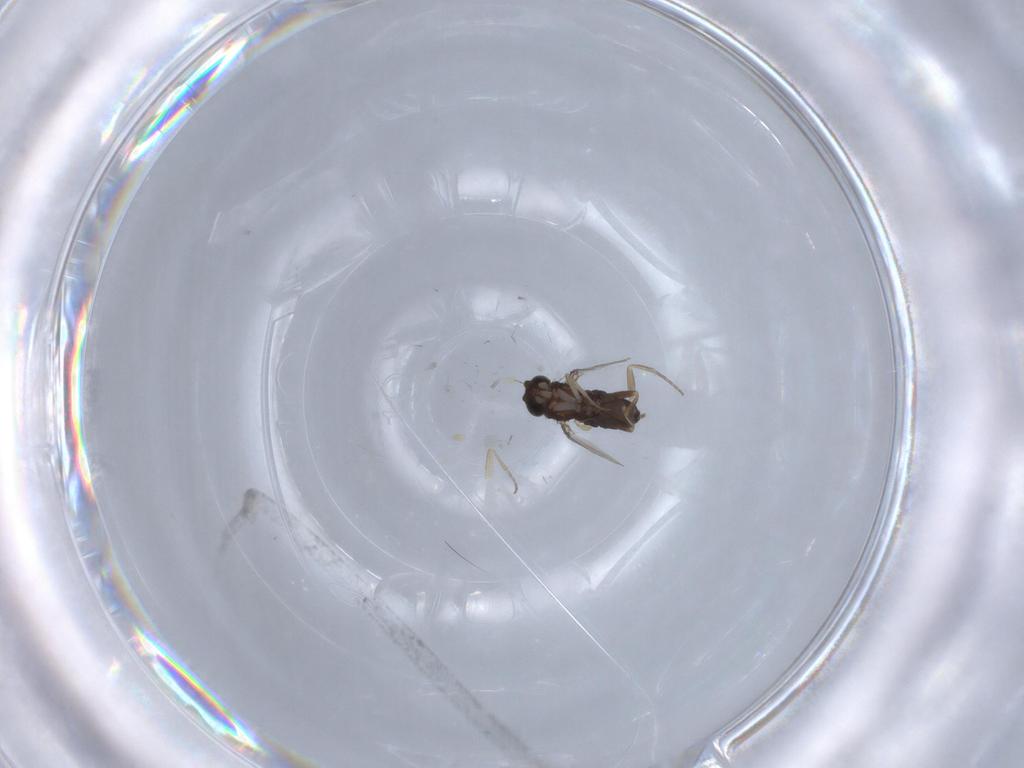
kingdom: Animalia
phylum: Arthropoda
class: Insecta
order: Diptera
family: Phoridae
